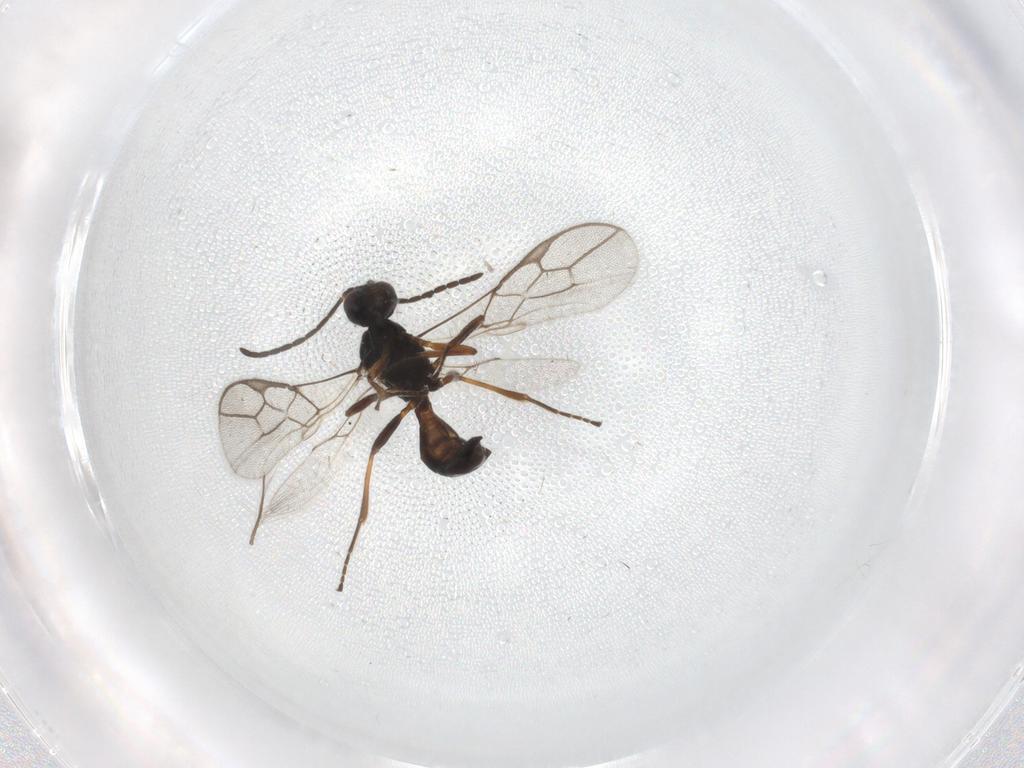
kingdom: Animalia
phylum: Arthropoda
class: Insecta
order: Hymenoptera
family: Braconidae
